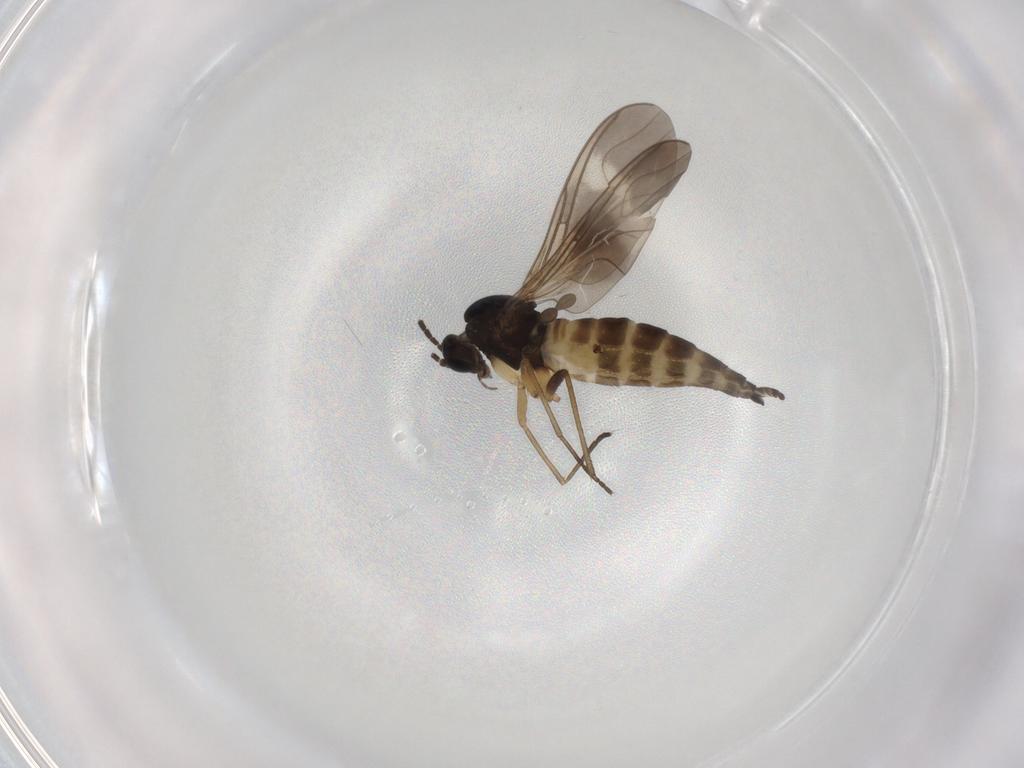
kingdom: Animalia
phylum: Arthropoda
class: Insecta
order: Diptera
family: Sciaridae
